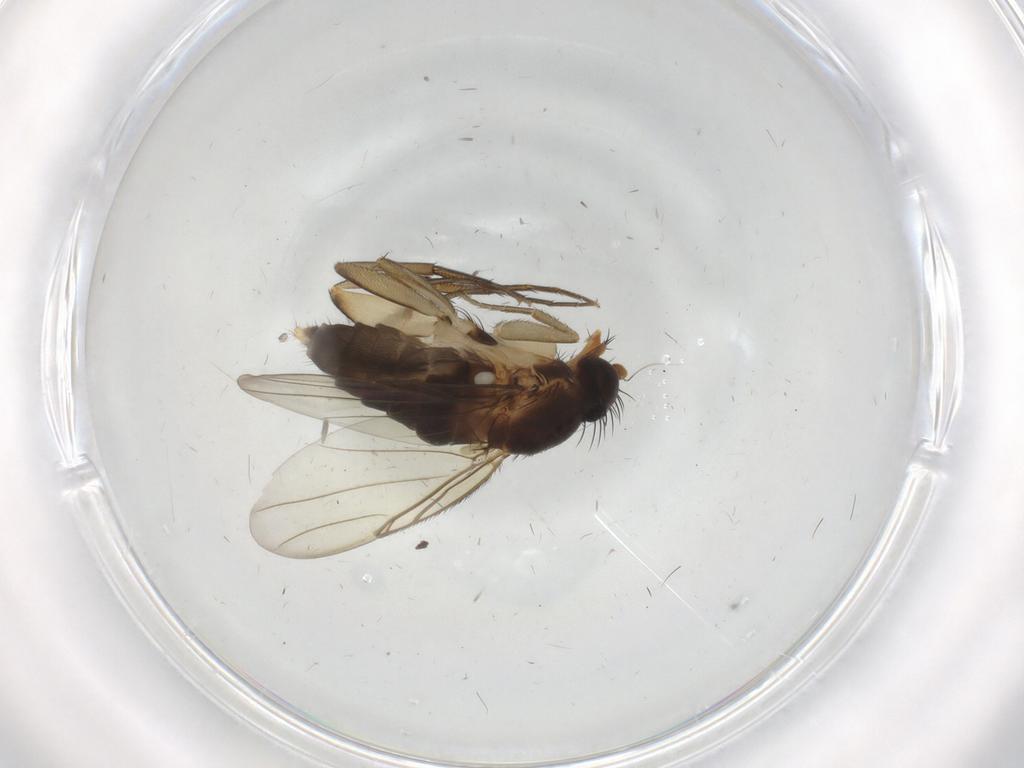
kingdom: Animalia
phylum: Arthropoda
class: Insecta
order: Diptera
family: Phoridae
